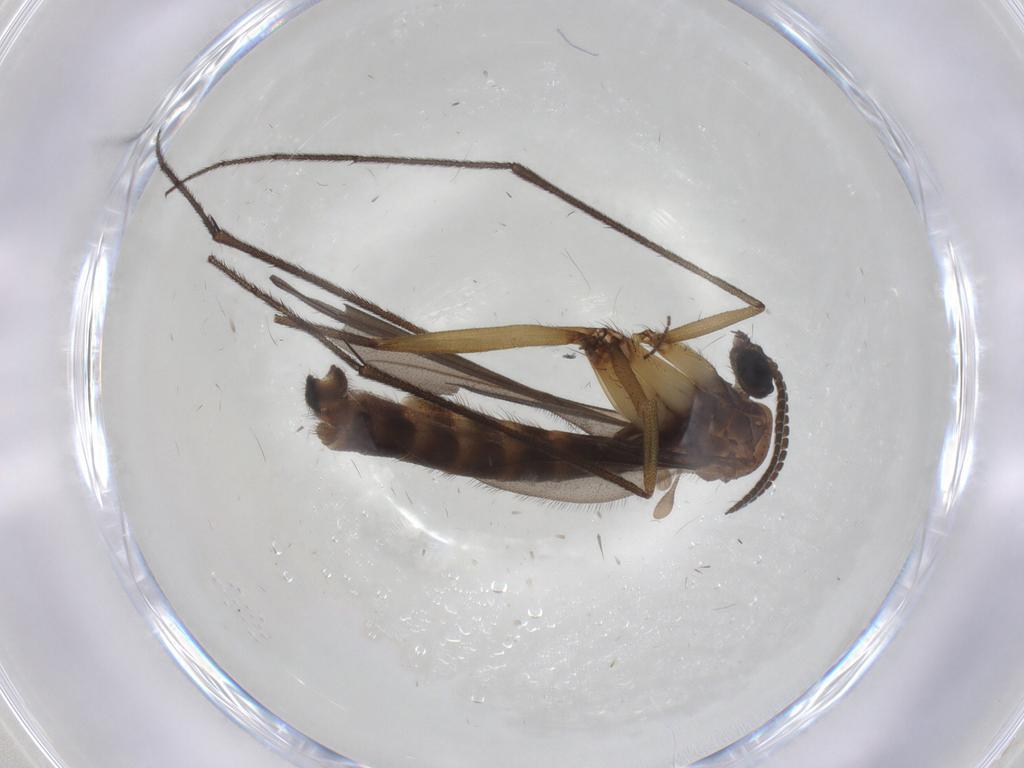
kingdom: Animalia
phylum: Arthropoda
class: Insecta
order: Diptera
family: Ditomyiidae
